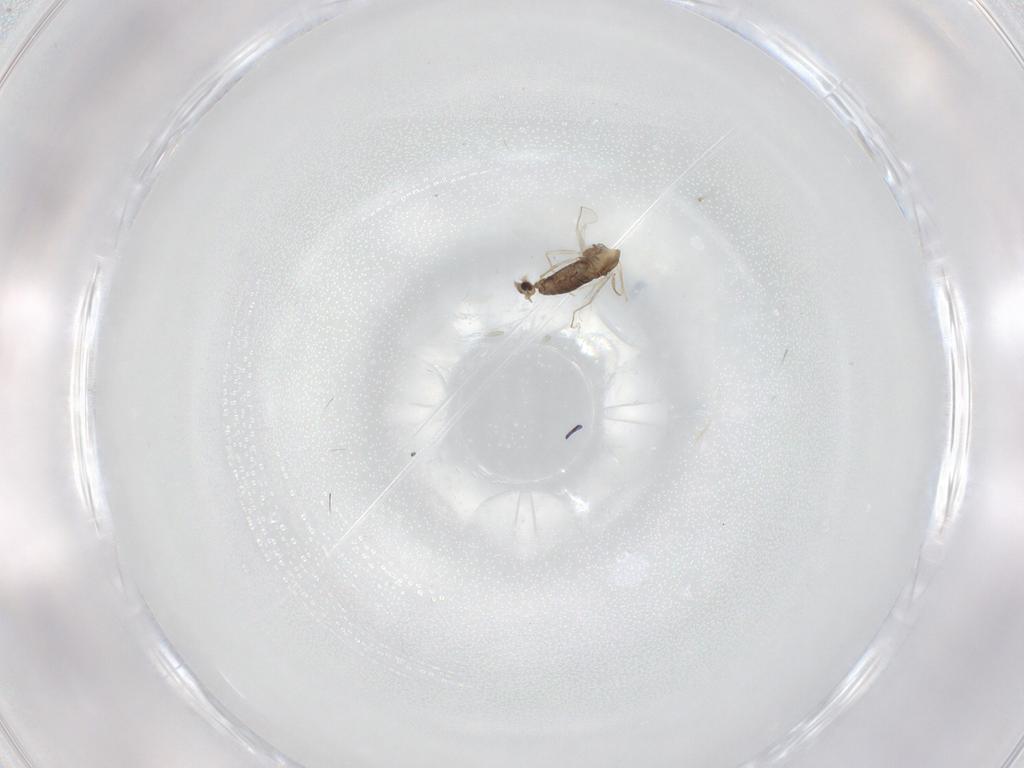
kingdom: Animalia
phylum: Arthropoda
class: Insecta
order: Diptera
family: Chironomidae
